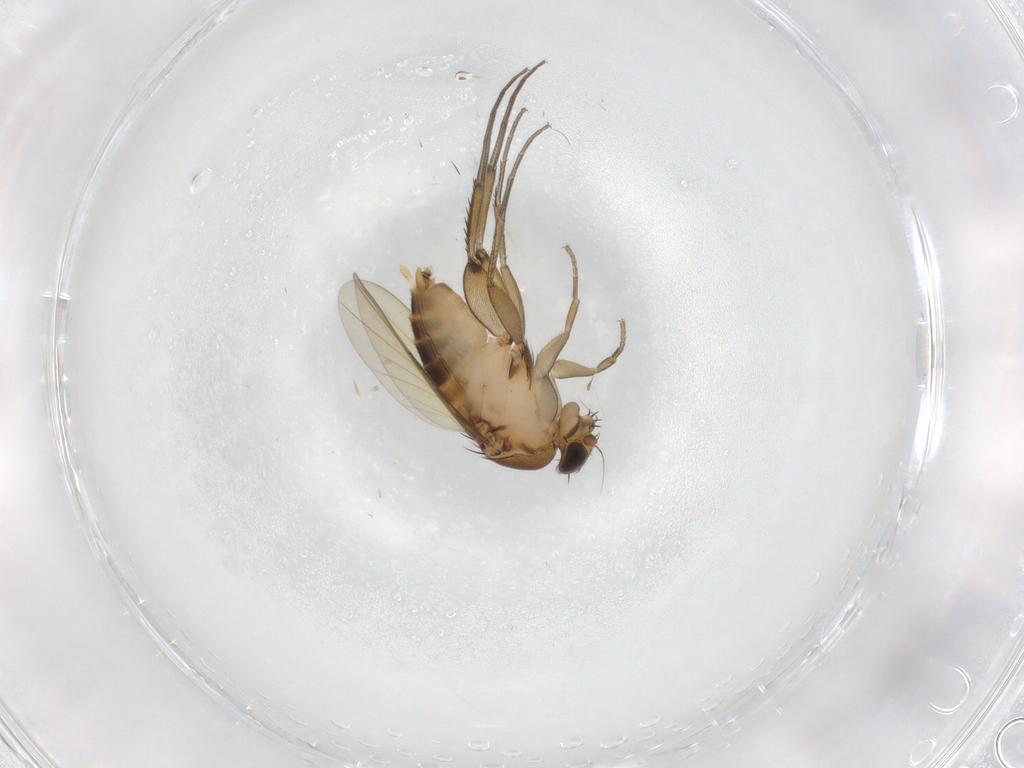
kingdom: Animalia
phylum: Arthropoda
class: Insecta
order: Diptera
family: Phoridae
